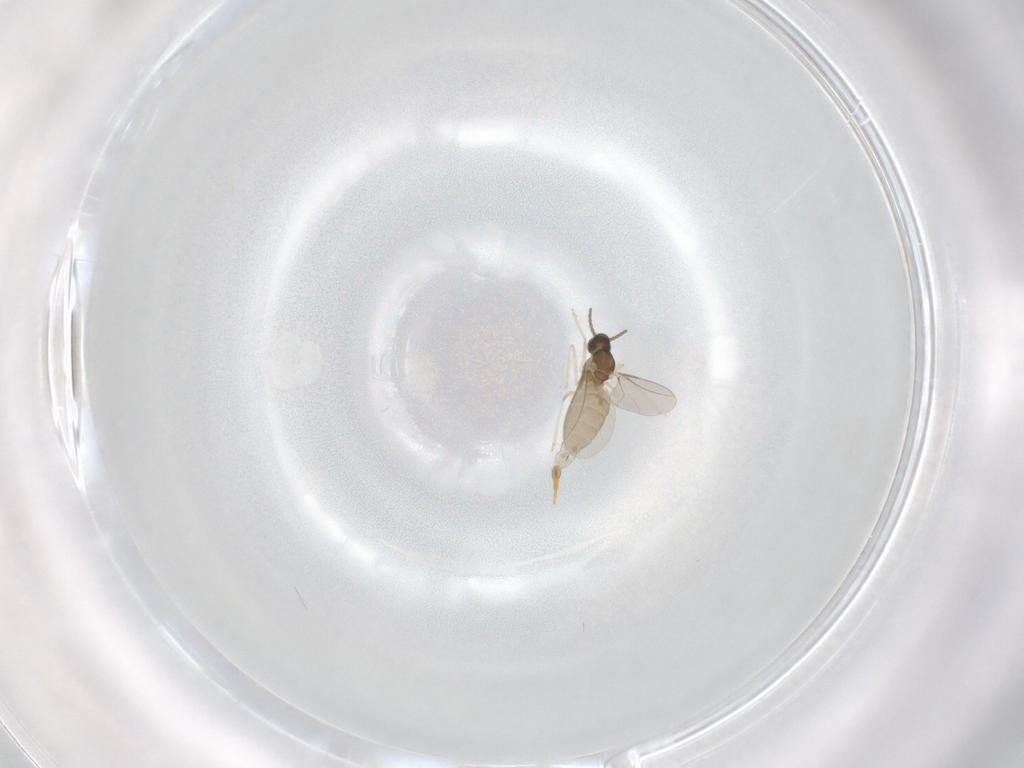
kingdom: Animalia
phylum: Arthropoda
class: Insecta
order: Diptera
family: Cecidomyiidae
